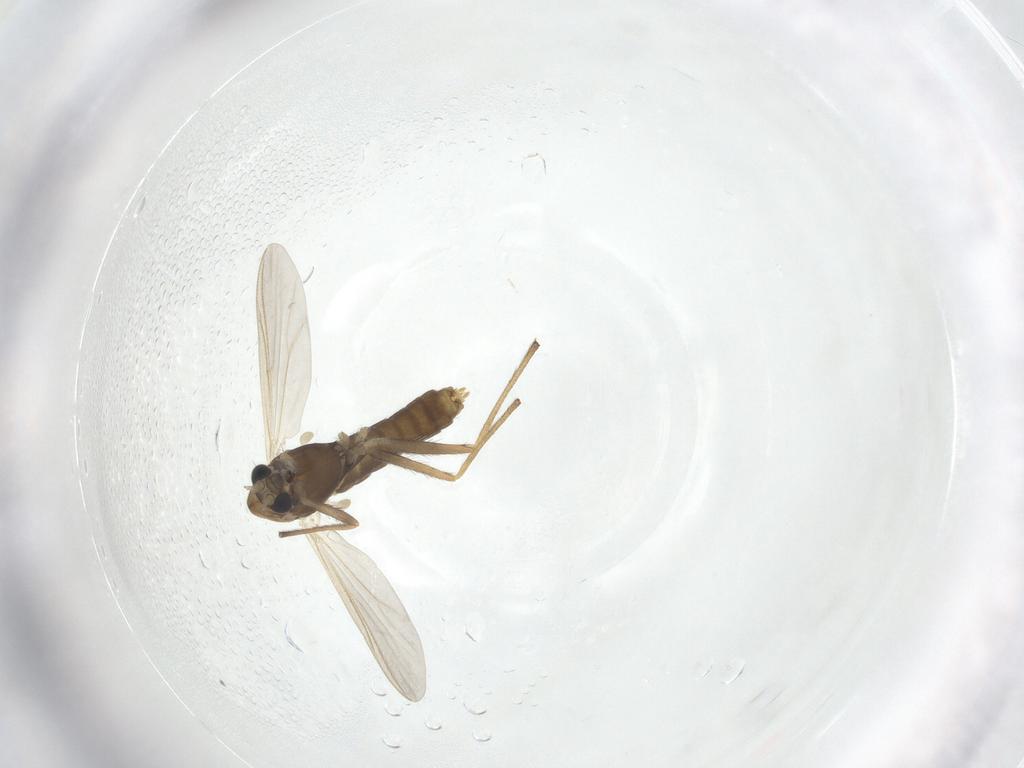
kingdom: Animalia
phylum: Arthropoda
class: Insecta
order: Diptera
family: Chironomidae
